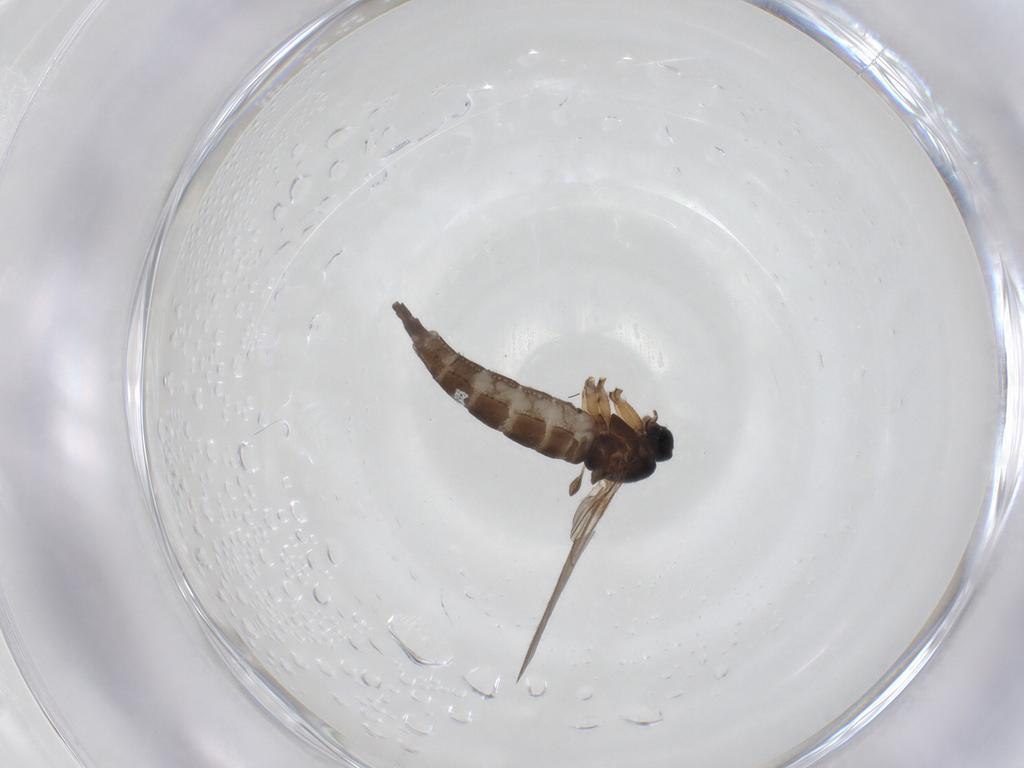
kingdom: Animalia
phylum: Arthropoda
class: Insecta
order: Diptera
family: Sciaridae
